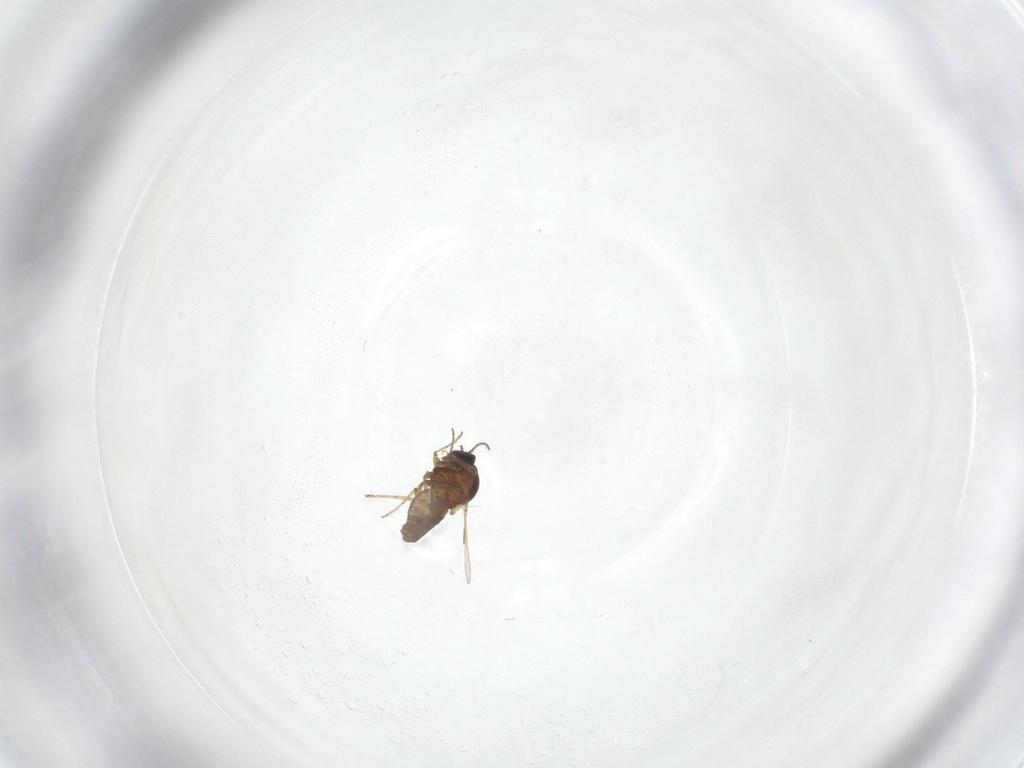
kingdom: Animalia
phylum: Arthropoda
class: Insecta
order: Diptera
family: Ceratopogonidae
